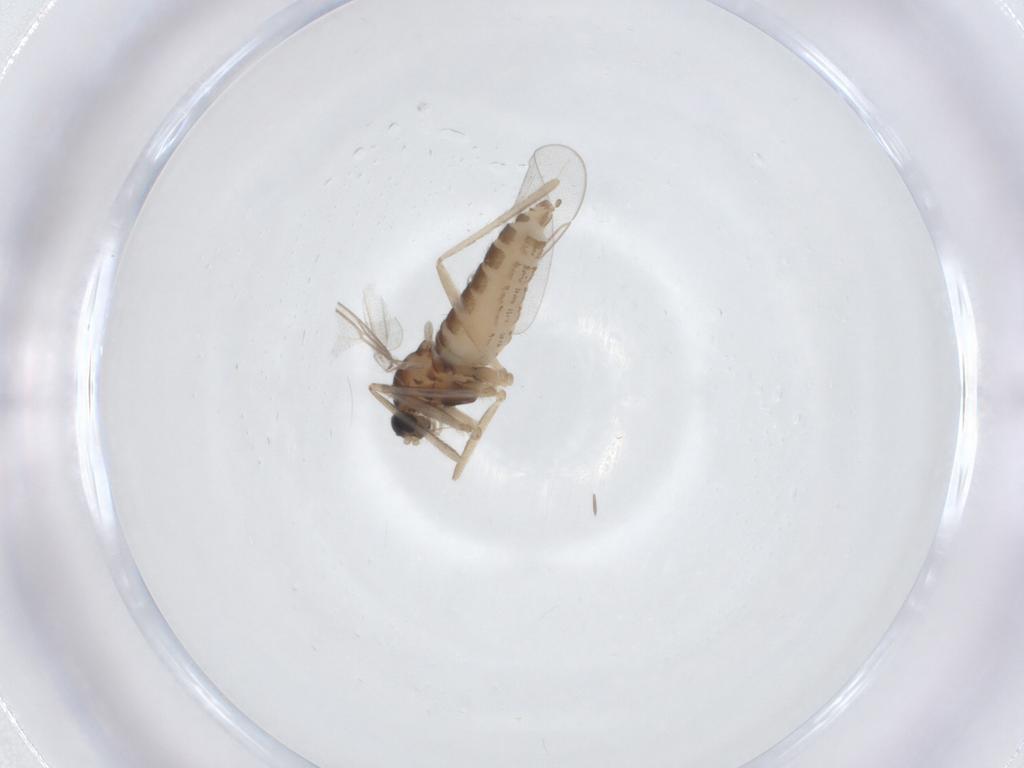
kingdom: Animalia
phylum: Arthropoda
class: Insecta
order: Diptera
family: Cecidomyiidae
